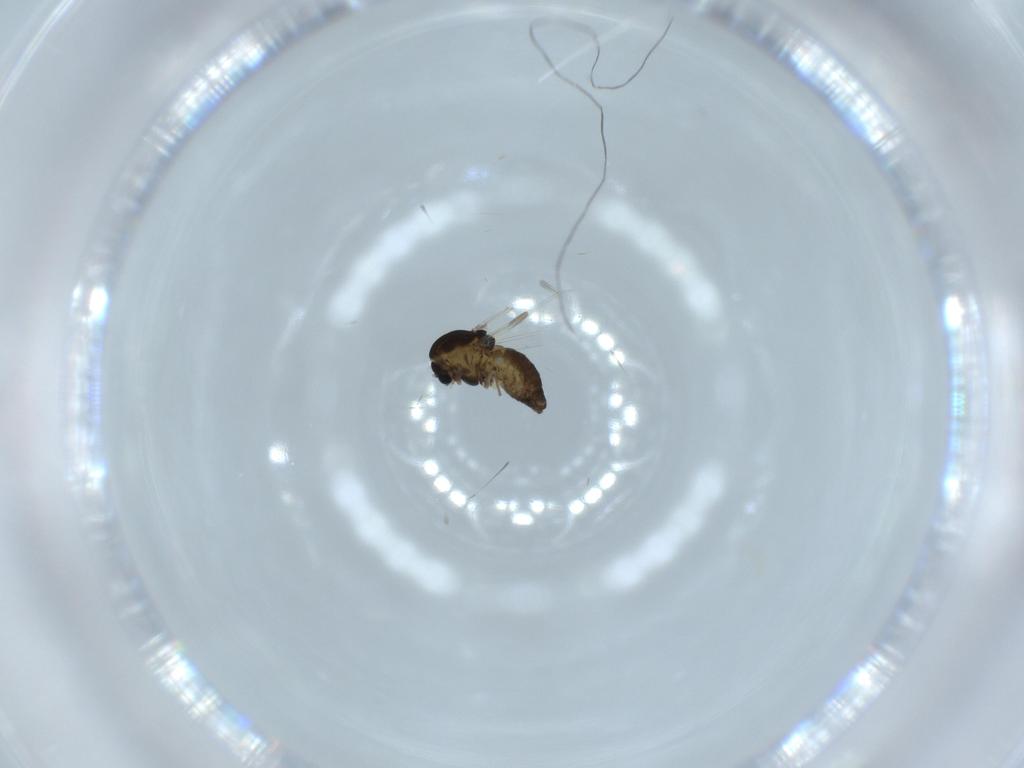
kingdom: Animalia
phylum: Arthropoda
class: Insecta
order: Diptera
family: Chironomidae
